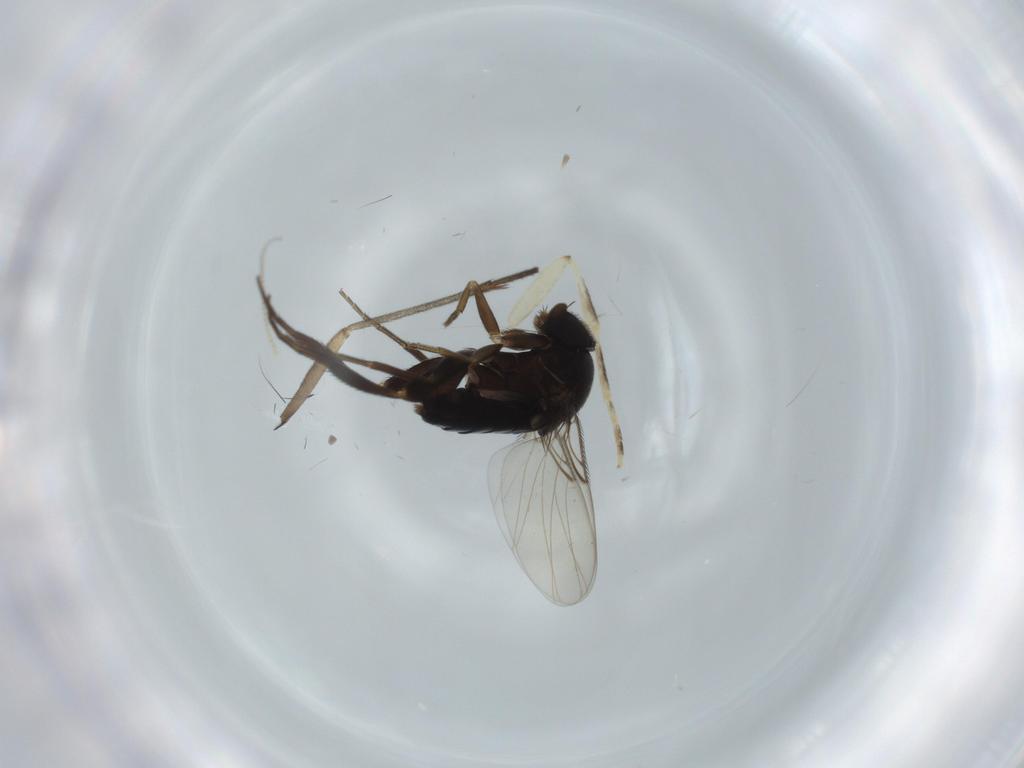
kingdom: Animalia
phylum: Arthropoda
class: Insecta
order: Diptera
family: Phoridae
